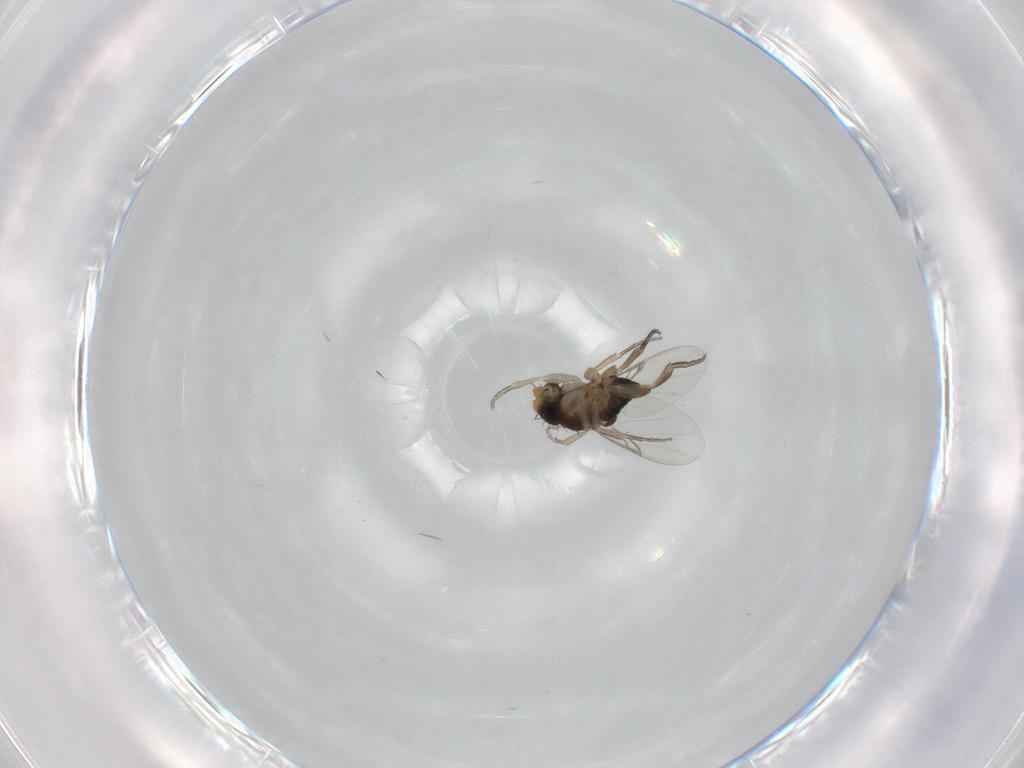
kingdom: Animalia
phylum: Arthropoda
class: Insecta
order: Diptera
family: Phoridae
